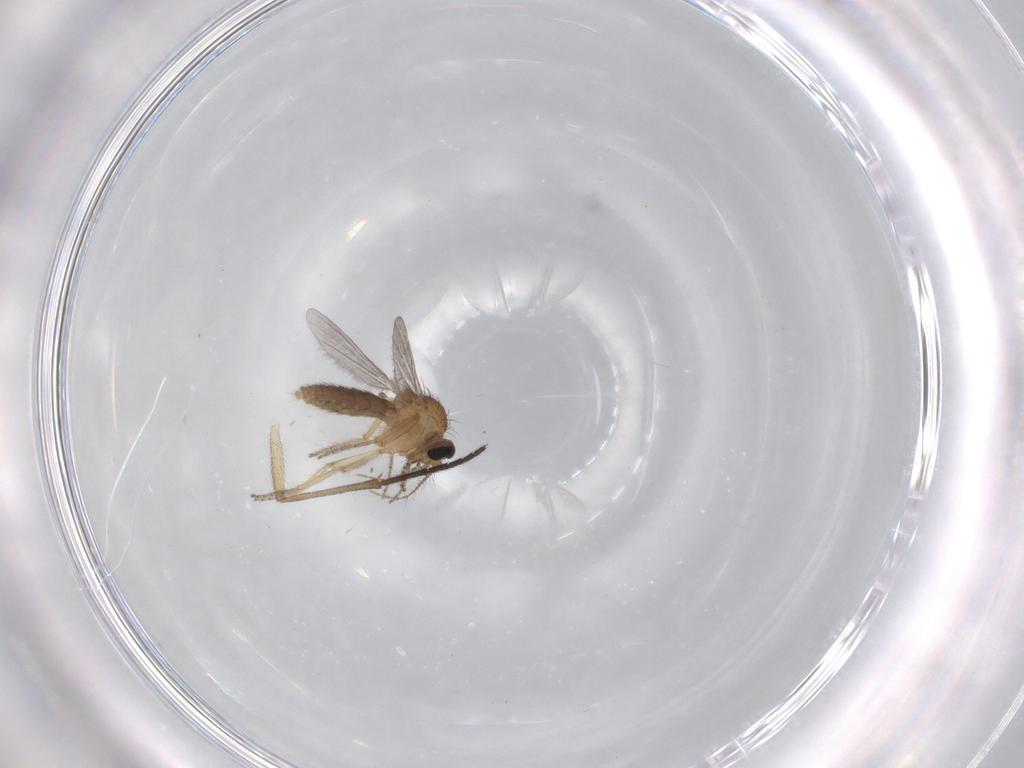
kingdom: Animalia
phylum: Arthropoda
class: Insecta
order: Diptera
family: Ceratopogonidae
